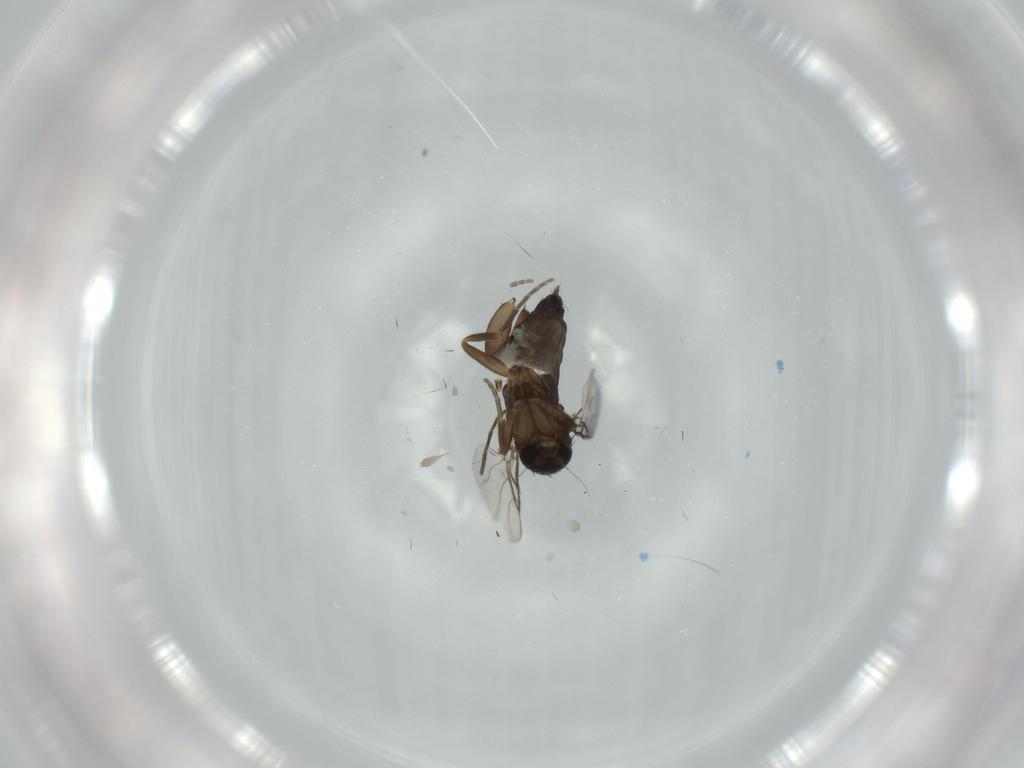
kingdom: Animalia
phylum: Arthropoda
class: Insecta
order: Diptera
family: Phoridae
